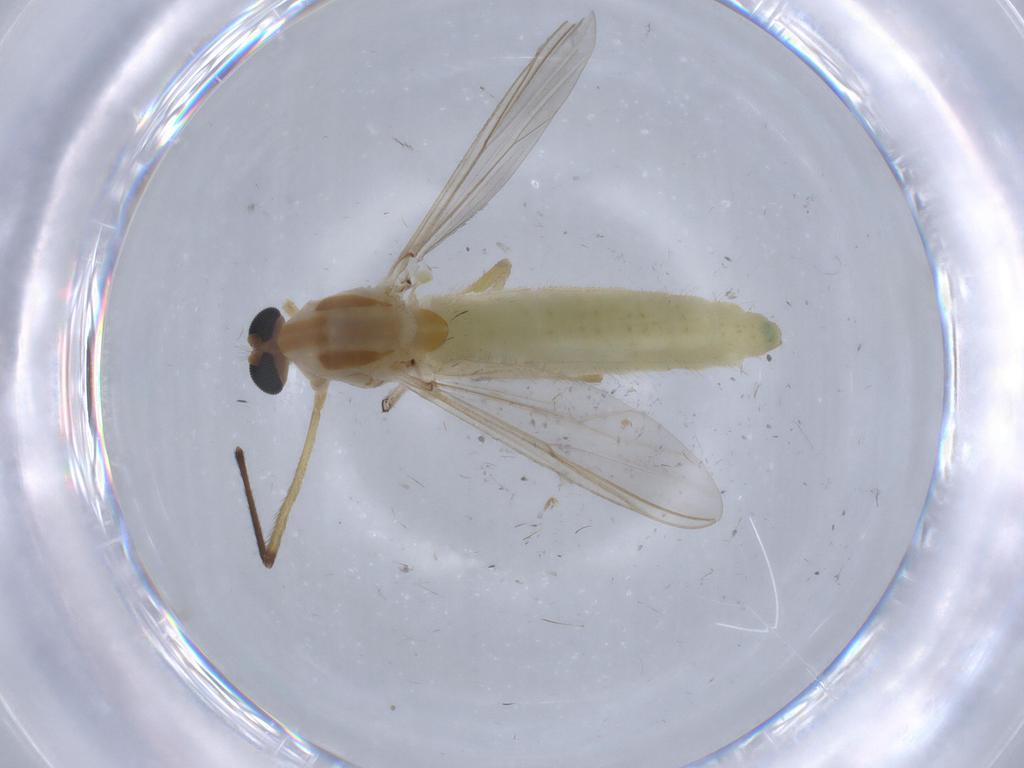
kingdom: Animalia
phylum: Arthropoda
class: Insecta
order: Diptera
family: Ceratopogonidae
